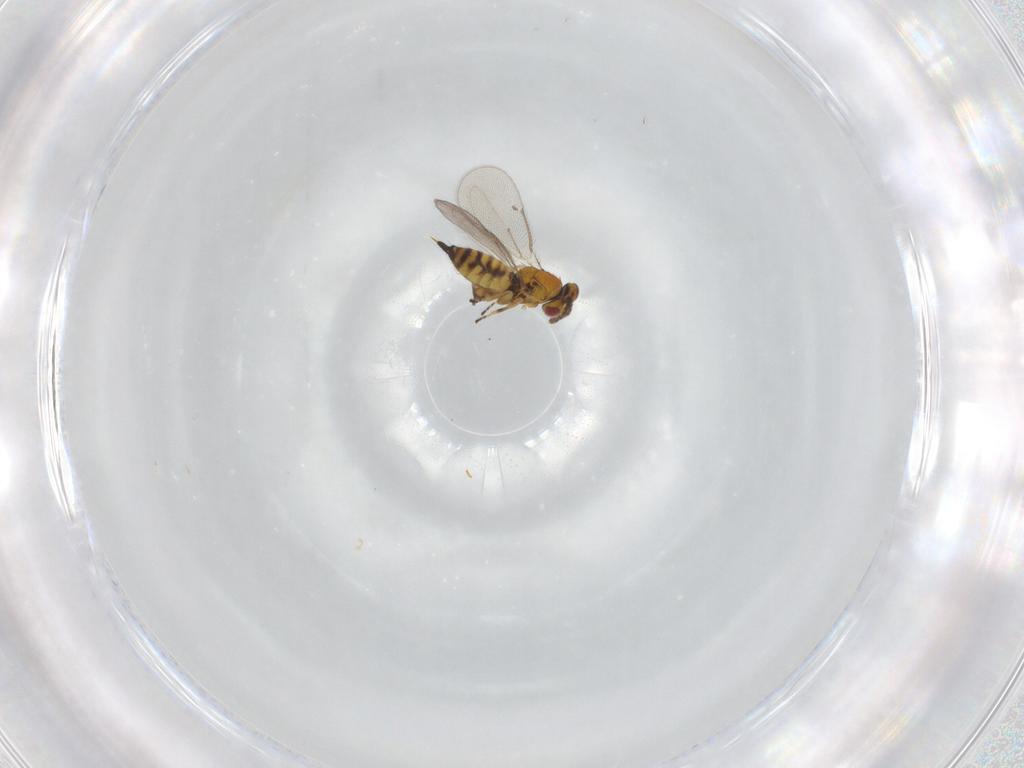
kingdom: Animalia
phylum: Arthropoda
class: Insecta
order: Hymenoptera
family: Eulophidae
